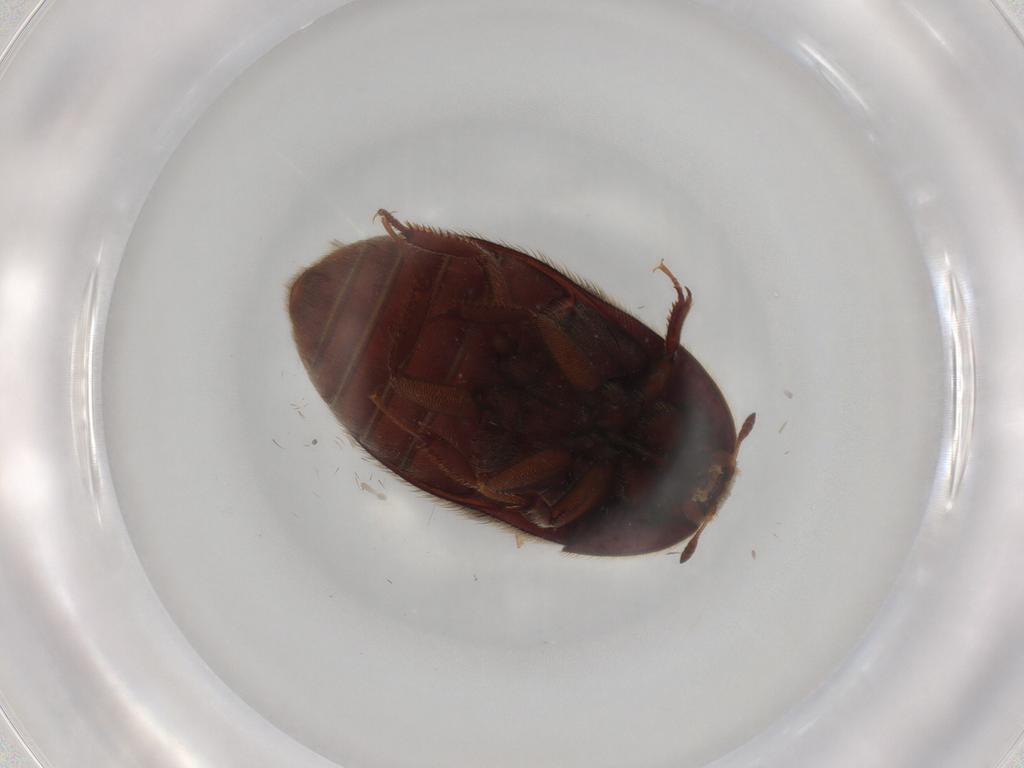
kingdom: Animalia
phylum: Arthropoda
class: Insecta
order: Coleoptera
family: Dermestidae
